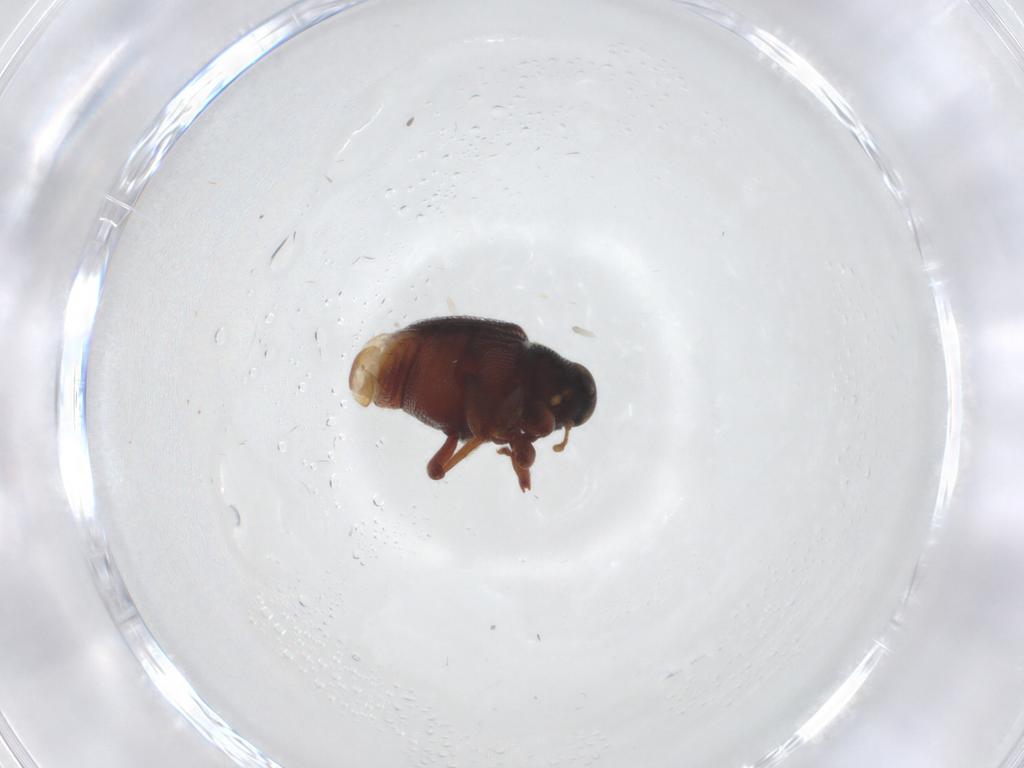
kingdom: Animalia
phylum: Arthropoda
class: Insecta
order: Coleoptera
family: Curculionidae
